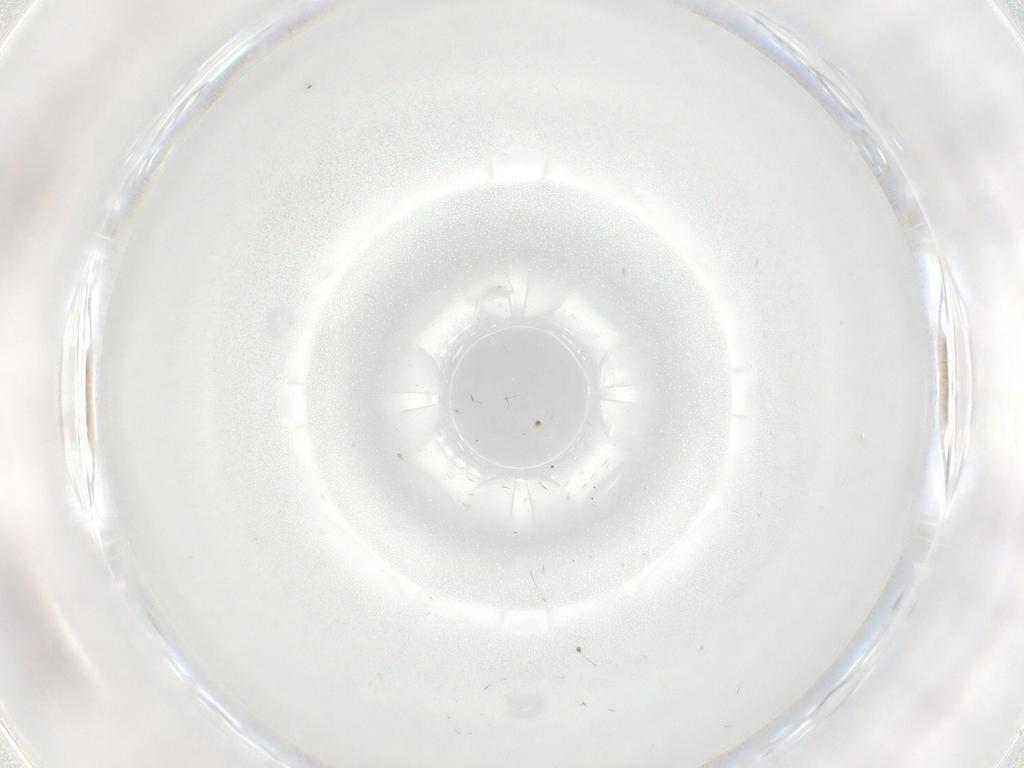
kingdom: Animalia
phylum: Arthropoda
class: Insecta
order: Diptera
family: Cecidomyiidae
